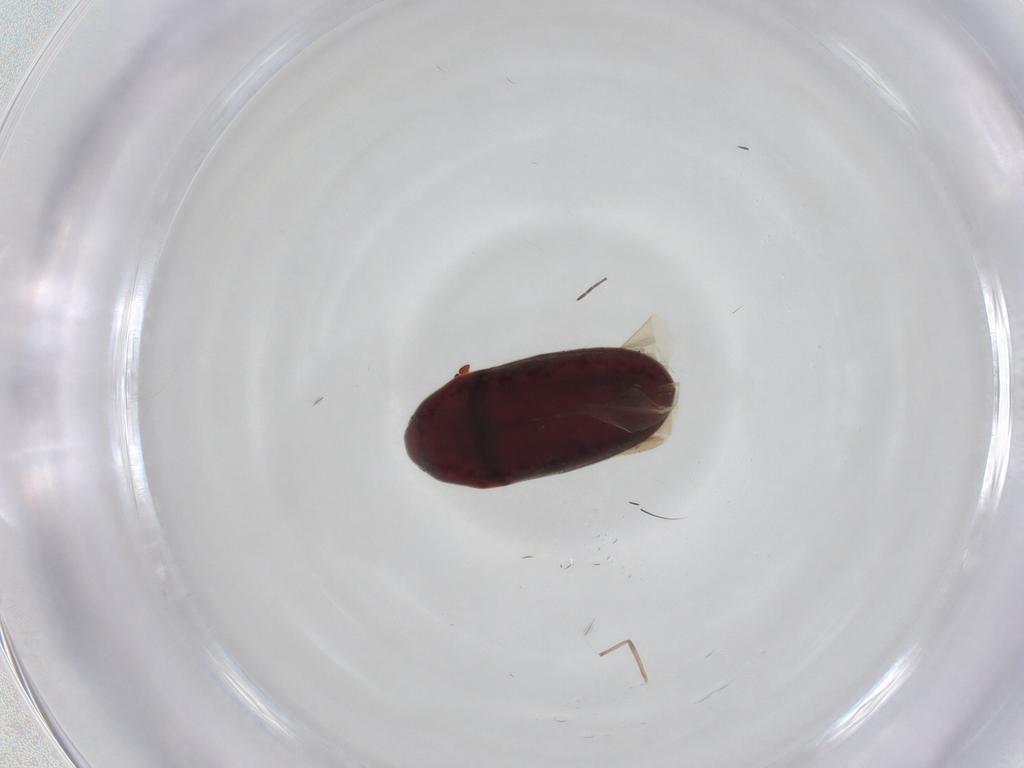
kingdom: Animalia
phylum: Arthropoda
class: Insecta
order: Coleoptera
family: Throscidae
